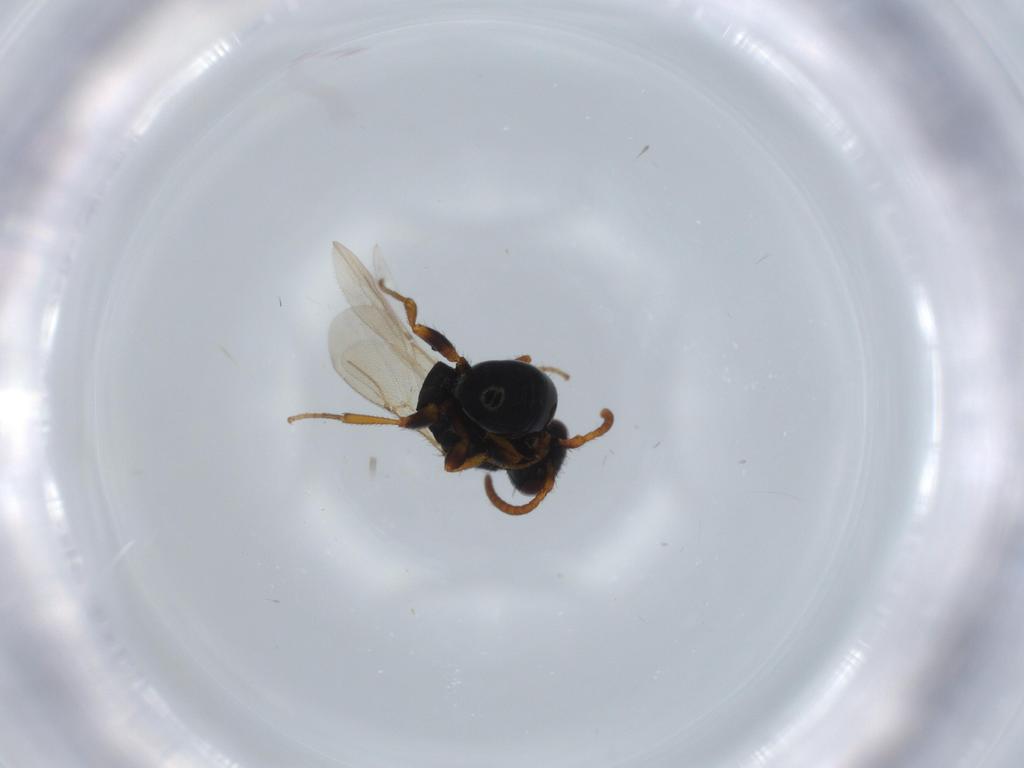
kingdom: Animalia
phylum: Arthropoda
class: Insecta
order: Hymenoptera
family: Bethylidae
